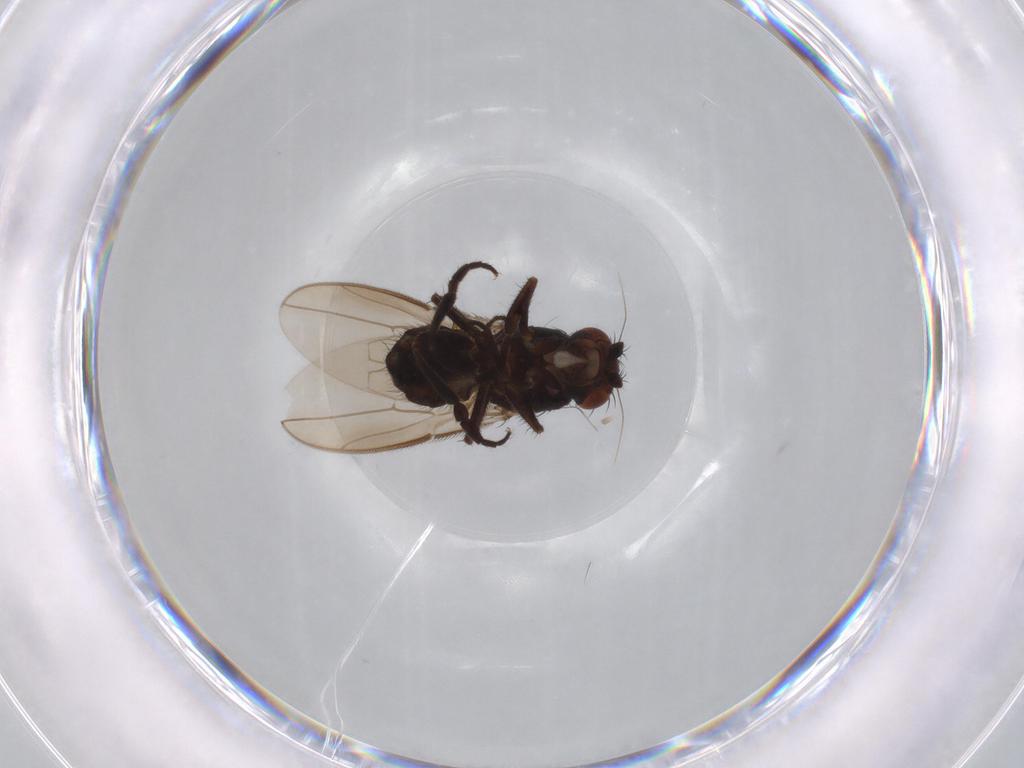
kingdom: Animalia
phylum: Arthropoda
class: Insecta
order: Diptera
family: Sphaeroceridae
